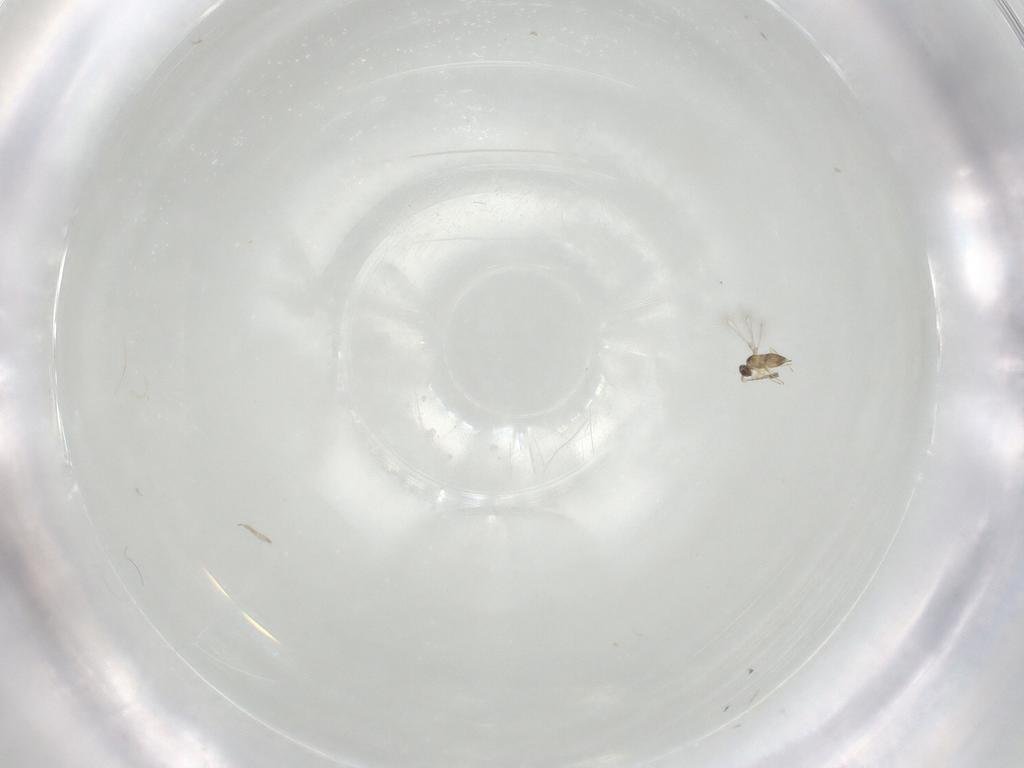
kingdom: Animalia
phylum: Arthropoda
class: Insecta
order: Hymenoptera
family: Mymaridae
